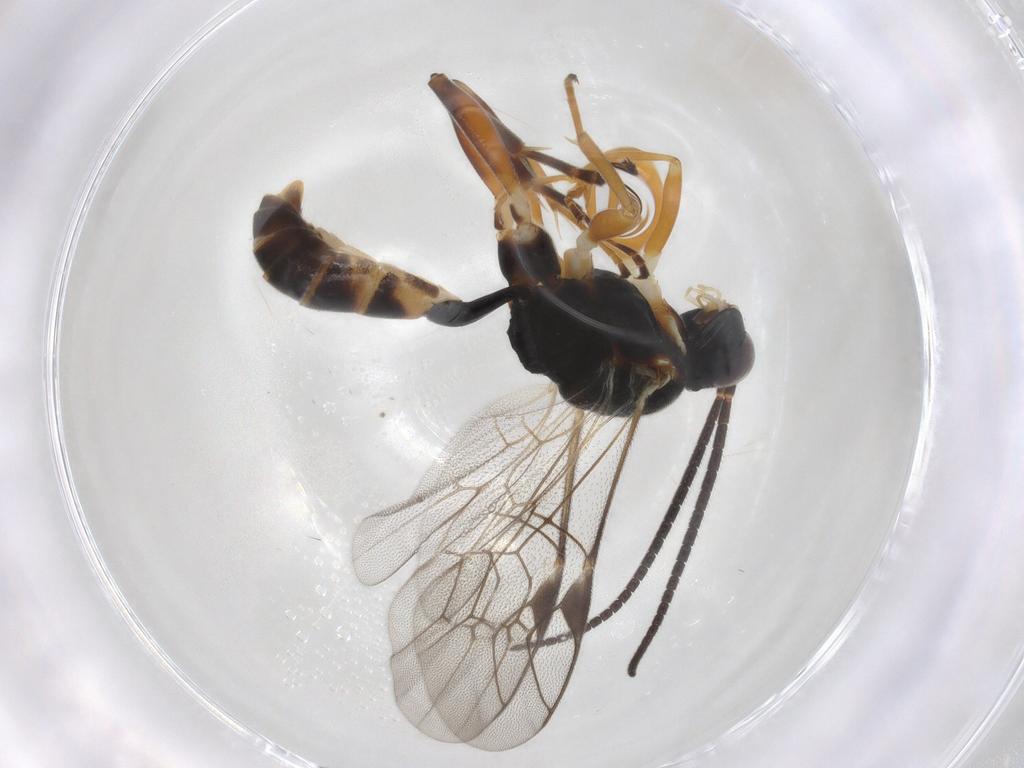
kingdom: Animalia
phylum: Arthropoda
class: Insecta
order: Hymenoptera
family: Ichneumonidae
